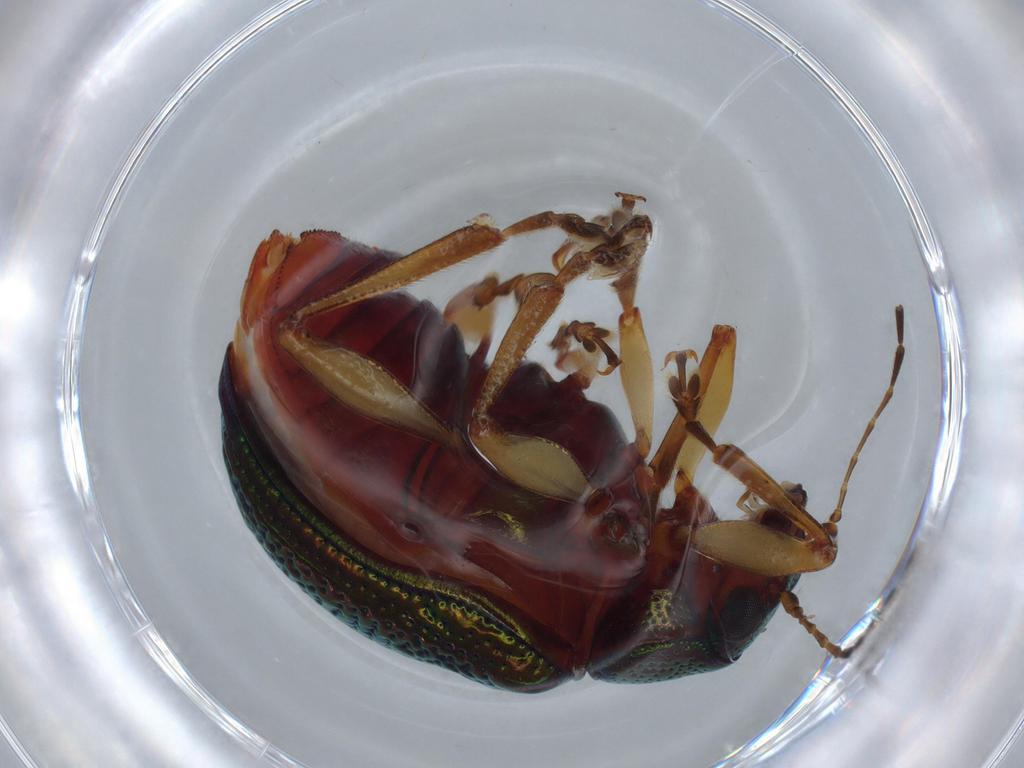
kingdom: Animalia
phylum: Arthropoda
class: Insecta
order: Coleoptera
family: Chrysomelidae
